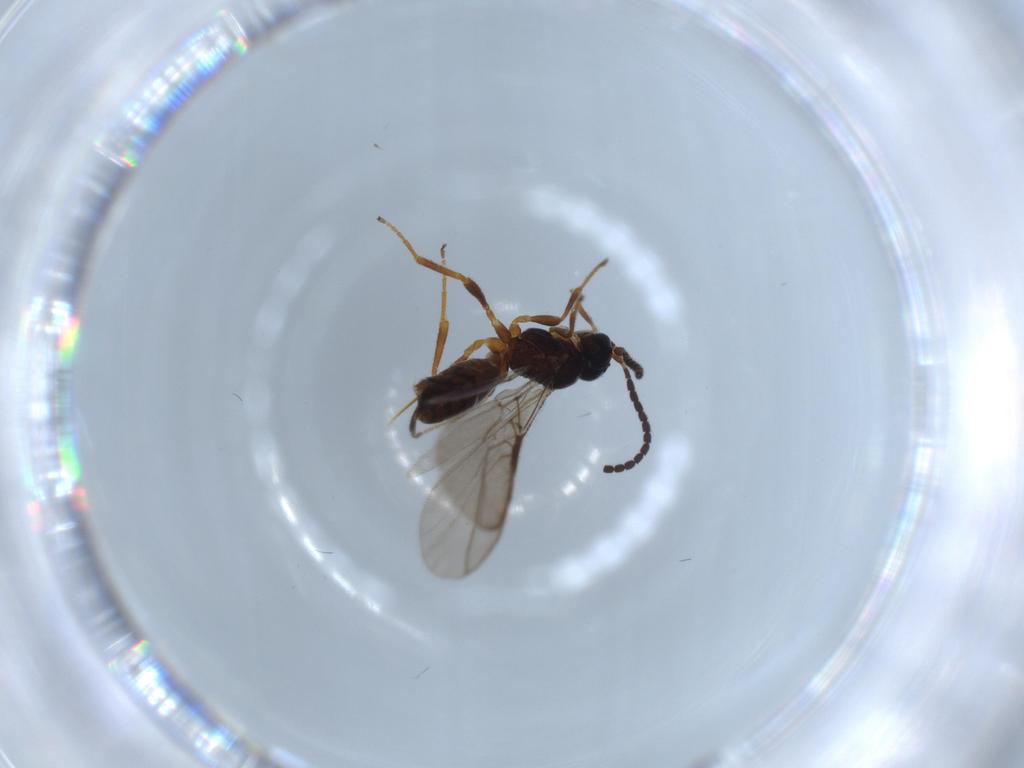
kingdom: Animalia
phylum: Arthropoda
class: Insecta
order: Hymenoptera
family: Braconidae
